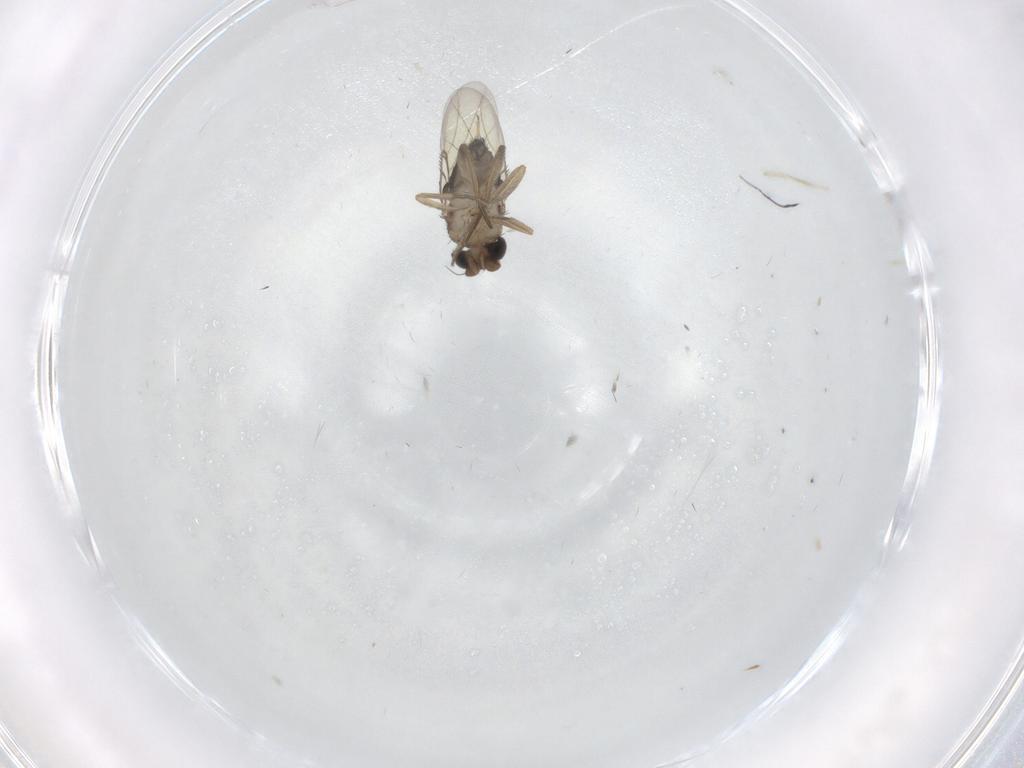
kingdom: Animalia
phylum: Arthropoda
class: Insecta
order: Diptera
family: Phoridae
